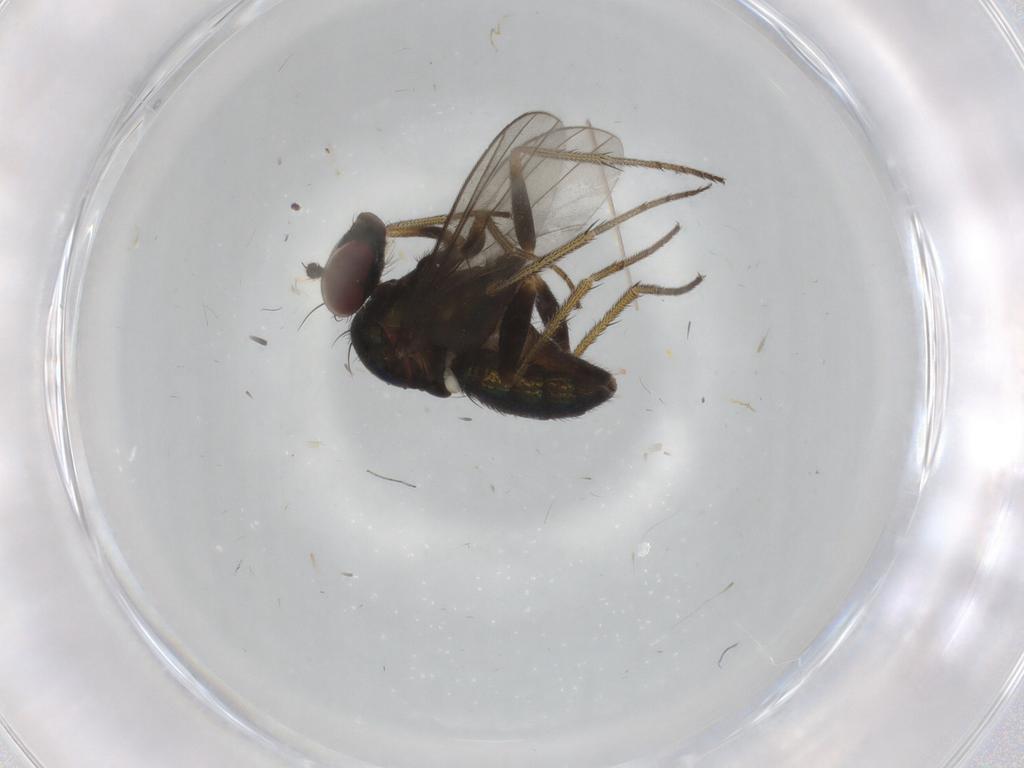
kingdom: Animalia
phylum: Arthropoda
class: Insecta
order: Diptera
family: Dolichopodidae
